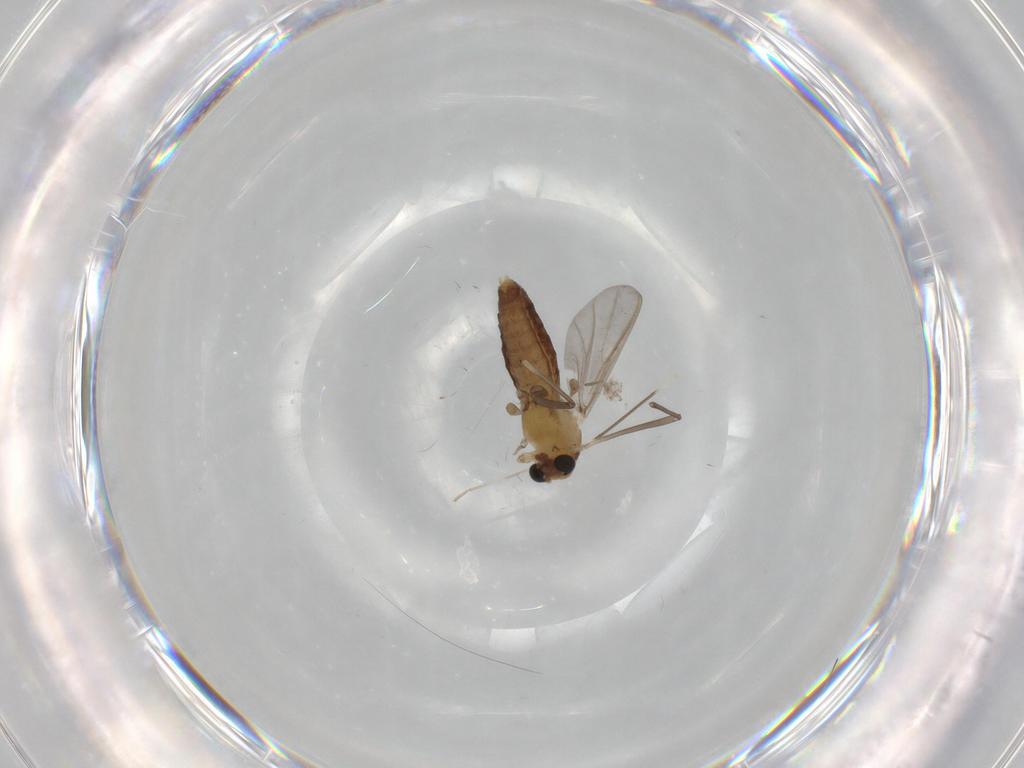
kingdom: Animalia
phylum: Arthropoda
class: Insecta
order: Diptera
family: Chironomidae
